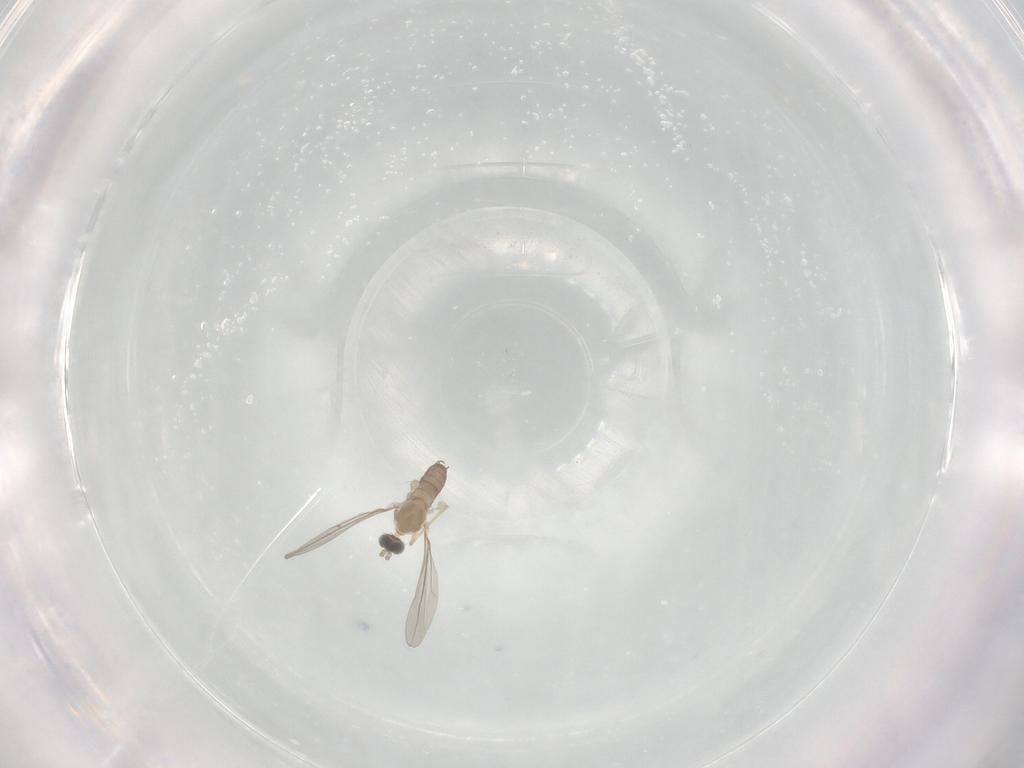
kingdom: Animalia
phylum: Arthropoda
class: Insecta
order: Diptera
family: Cecidomyiidae
